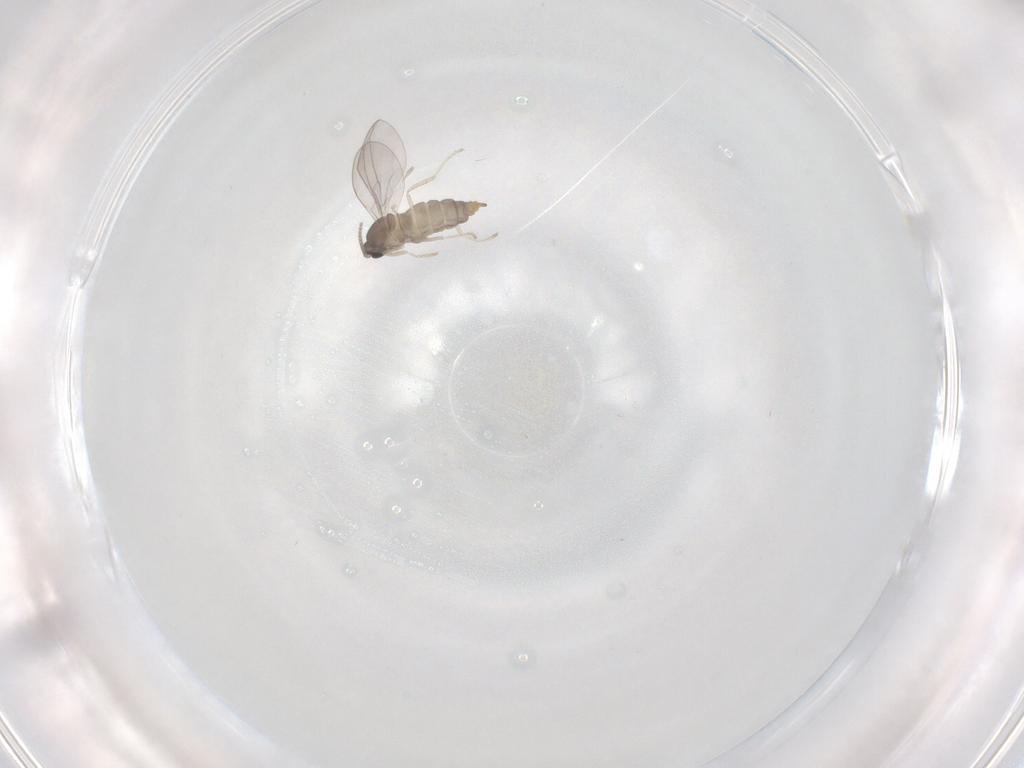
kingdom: Animalia
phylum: Arthropoda
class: Insecta
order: Diptera
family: Cecidomyiidae
